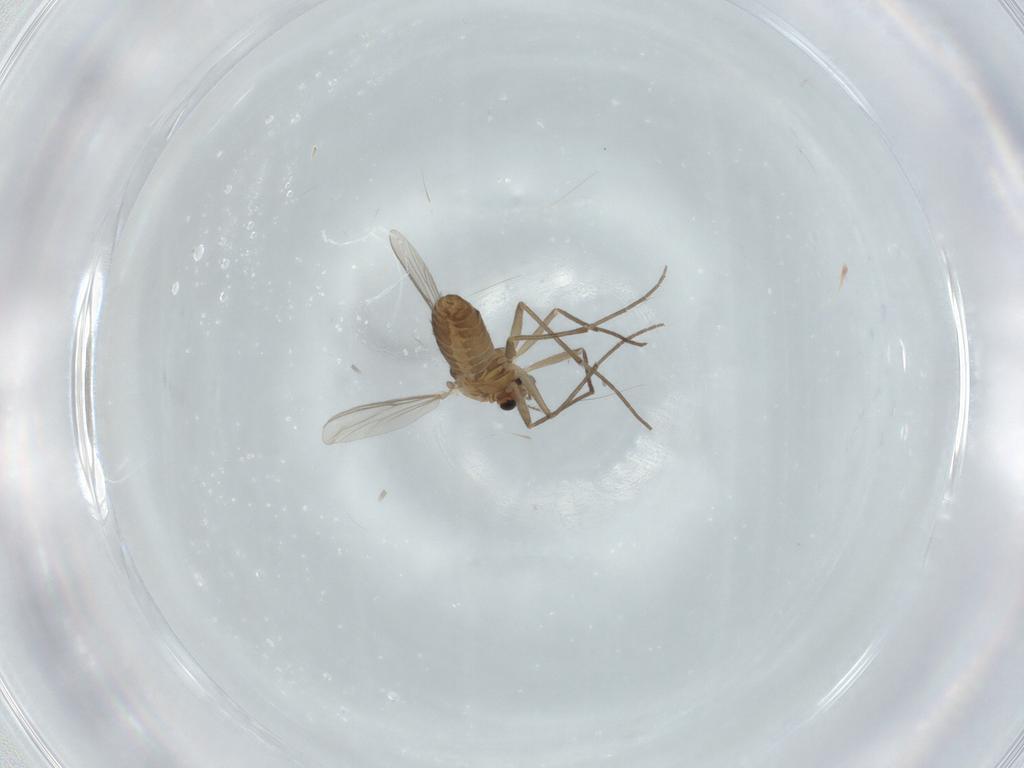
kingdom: Animalia
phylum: Arthropoda
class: Insecta
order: Diptera
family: Chironomidae
